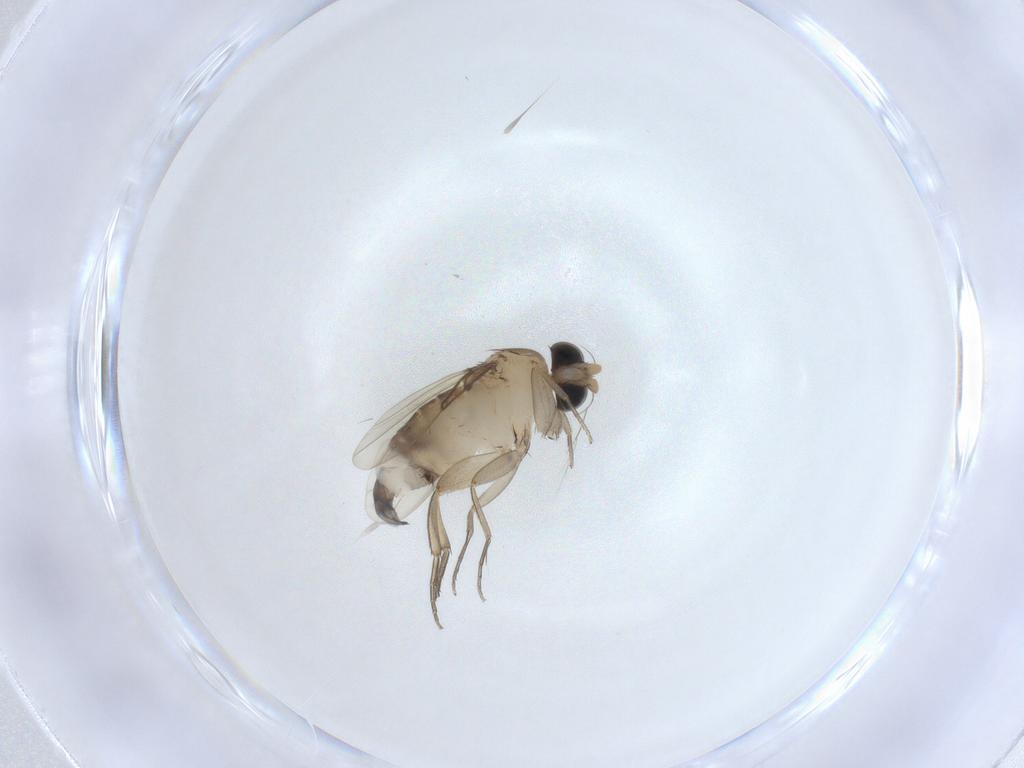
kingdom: Animalia
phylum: Arthropoda
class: Insecta
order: Diptera
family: Phoridae
